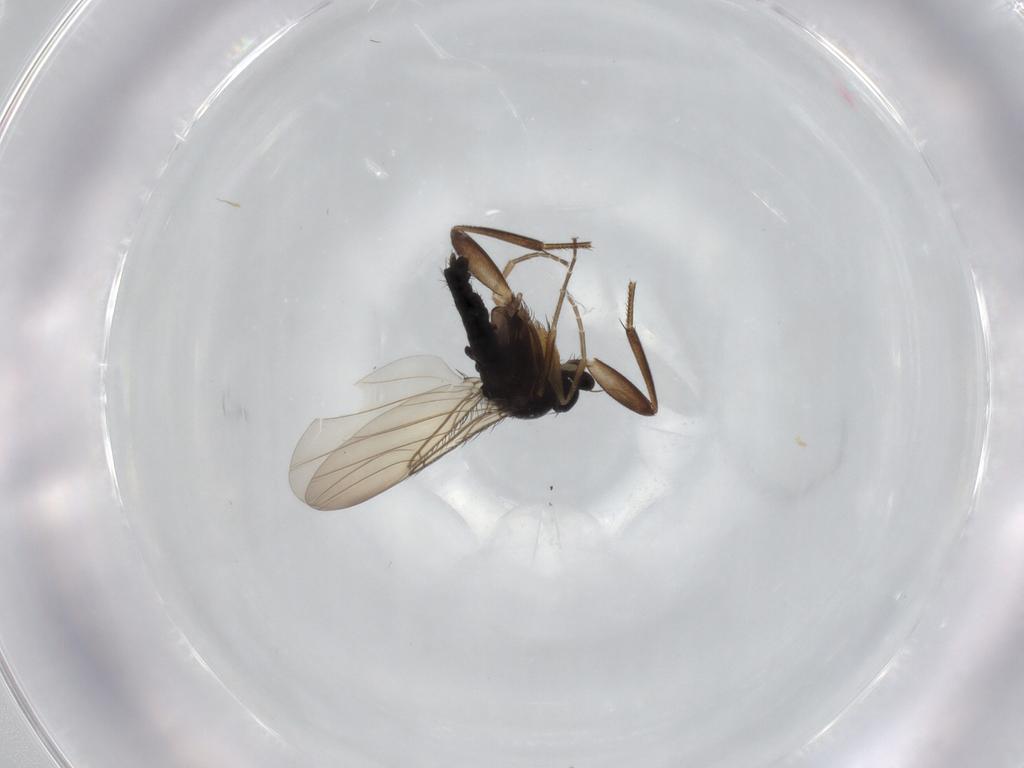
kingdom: Animalia
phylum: Arthropoda
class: Insecta
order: Diptera
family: Phoridae
